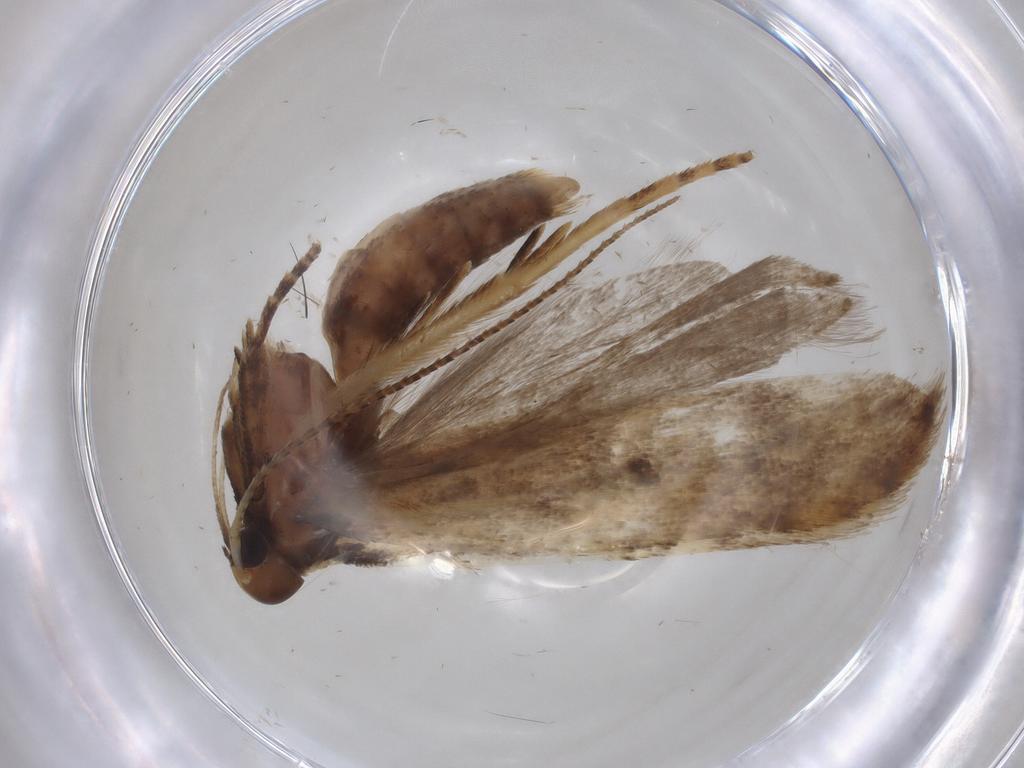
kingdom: Animalia
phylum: Arthropoda
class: Insecta
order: Lepidoptera
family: Gelechiidae
